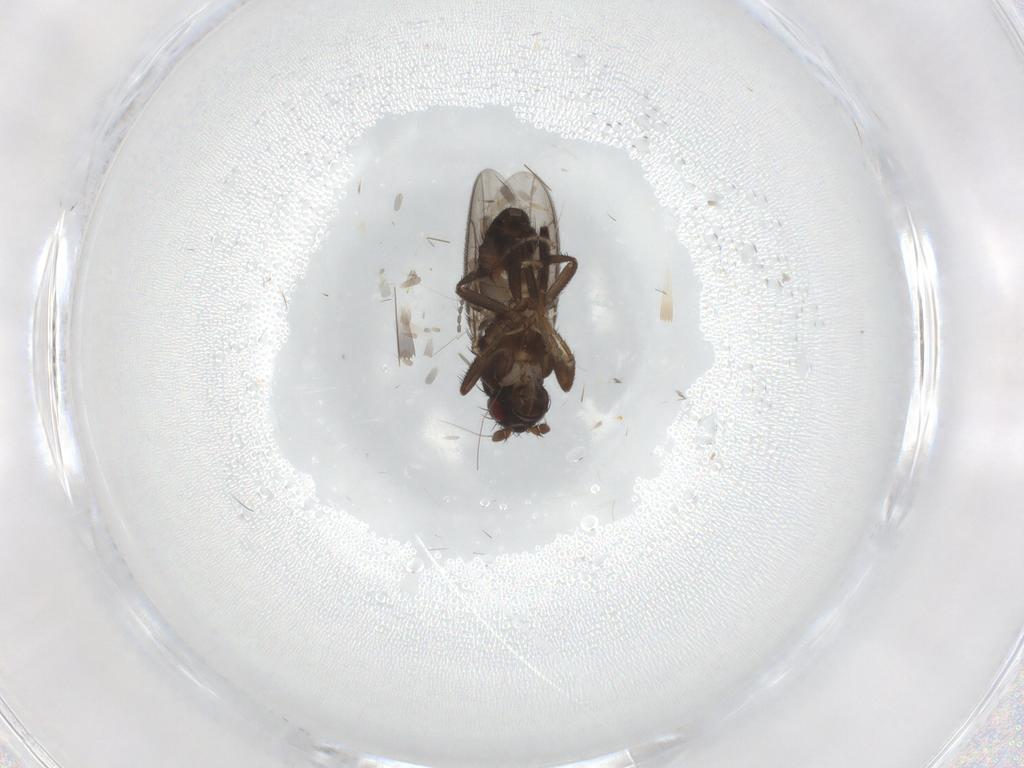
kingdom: Animalia
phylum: Arthropoda
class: Insecta
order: Diptera
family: Sphaeroceridae
